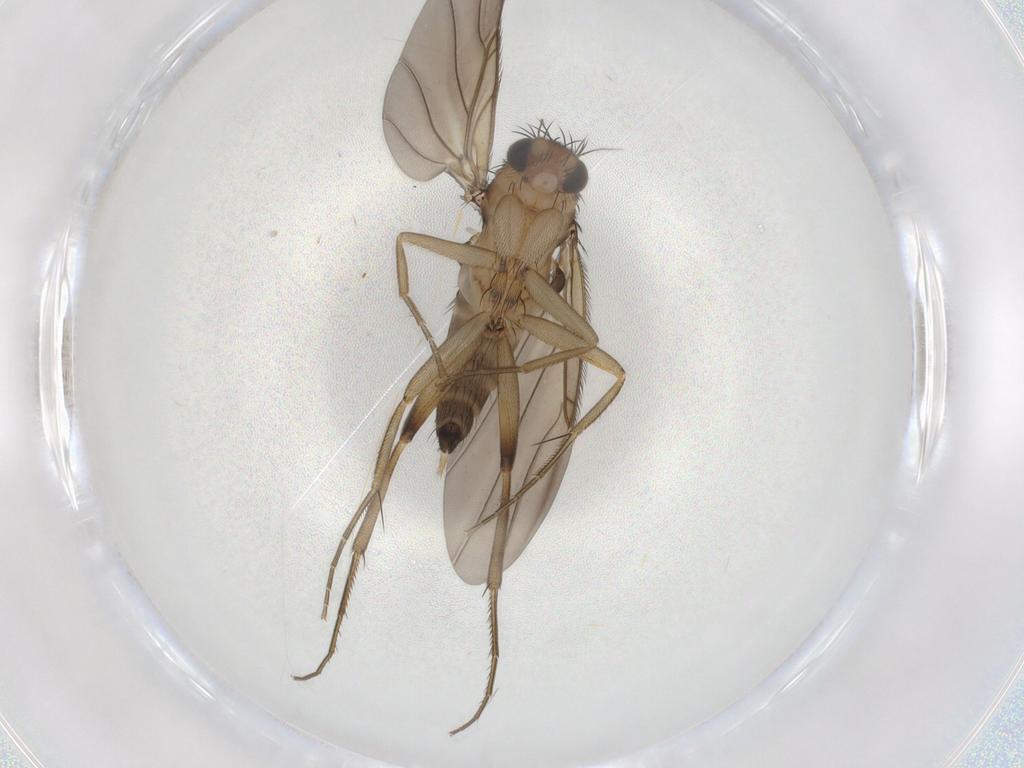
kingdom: Animalia
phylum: Arthropoda
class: Insecta
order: Diptera
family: Phoridae
